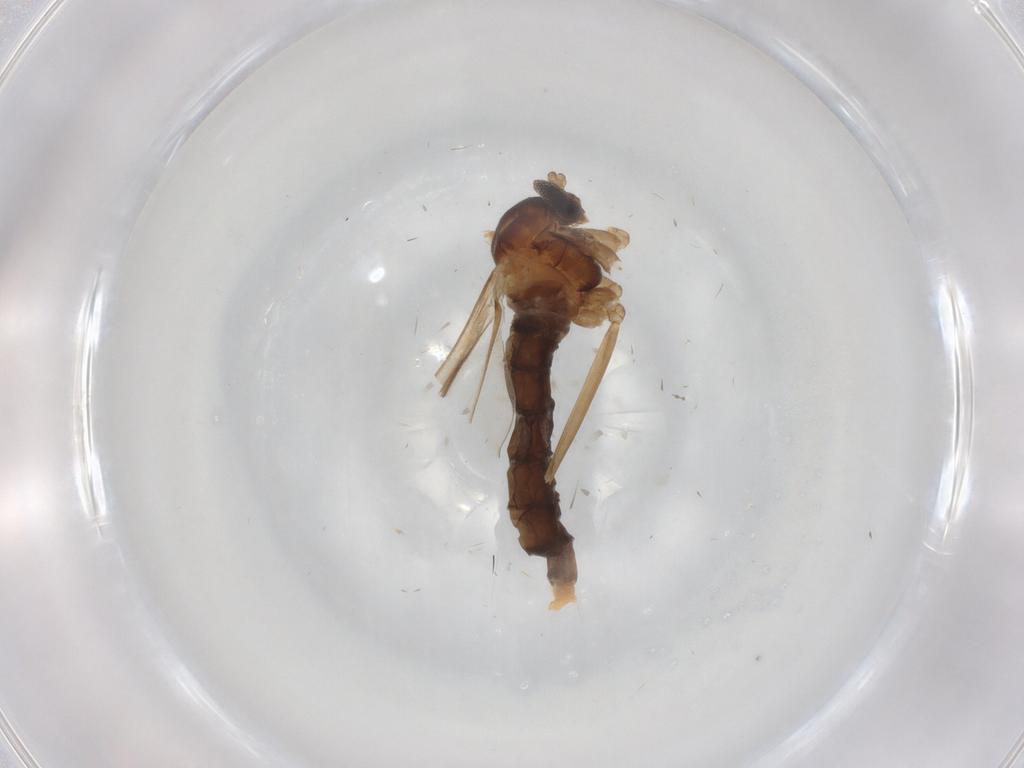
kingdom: Animalia
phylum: Arthropoda
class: Insecta
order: Diptera
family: Cecidomyiidae
